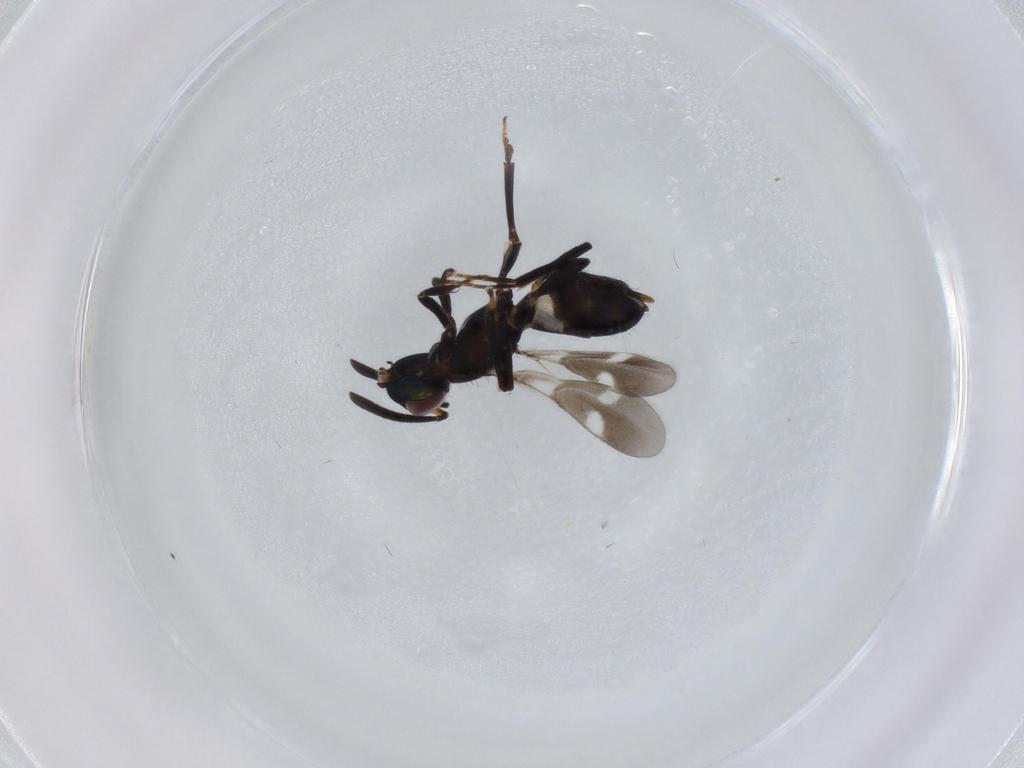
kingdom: Animalia
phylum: Arthropoda
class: Insecta
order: Hymenoptera
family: Eupelmidae
